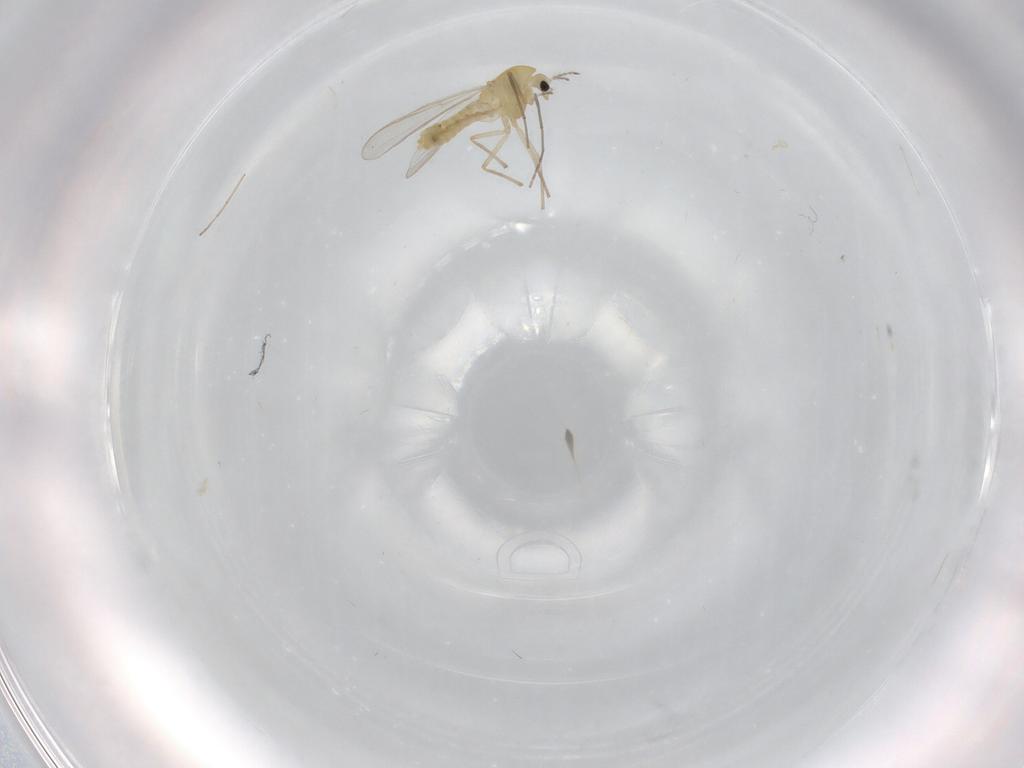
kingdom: Animalia
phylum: Arthropoda
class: Insecta
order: Diptera
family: Chironomidae
